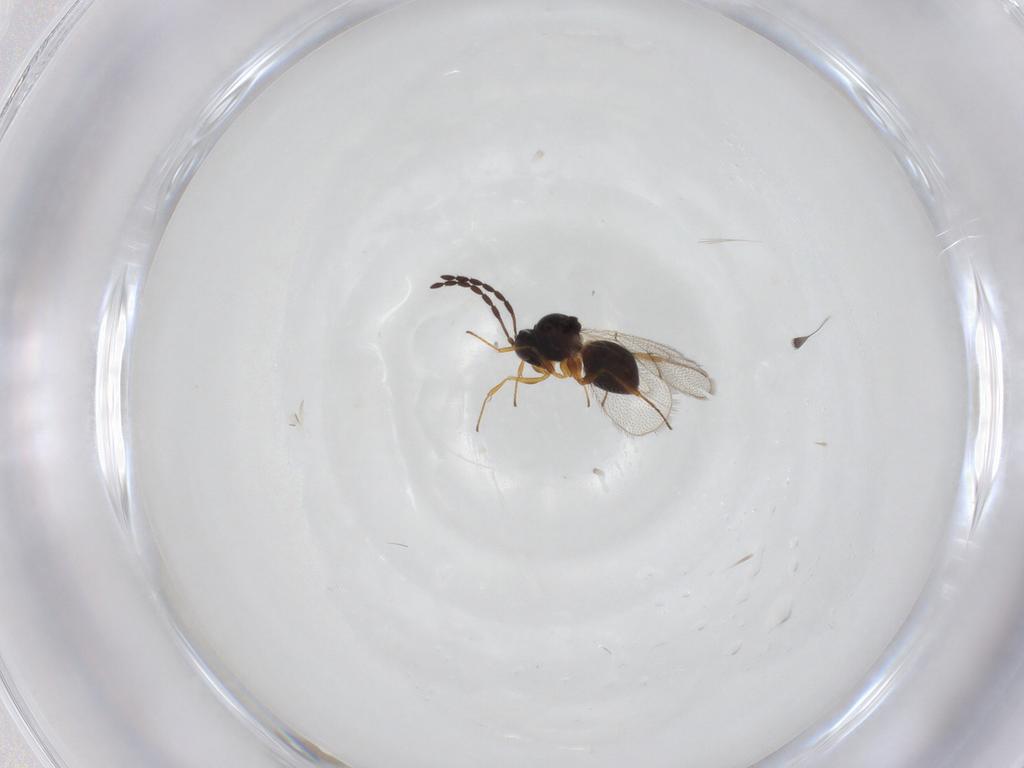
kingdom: Animalia
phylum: Arthropoda
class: Insecta
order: Hymenoptera
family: Figitidae
